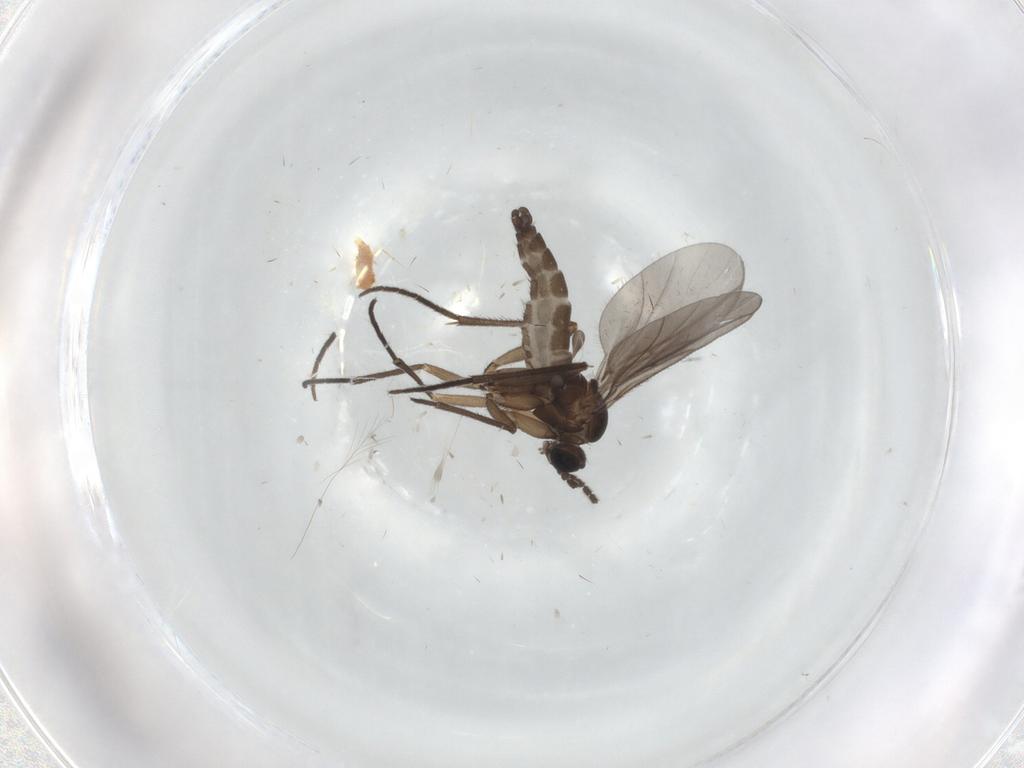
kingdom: Animalia
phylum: Arthropoda
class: Insecta
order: Diptera
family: Sciaridae
